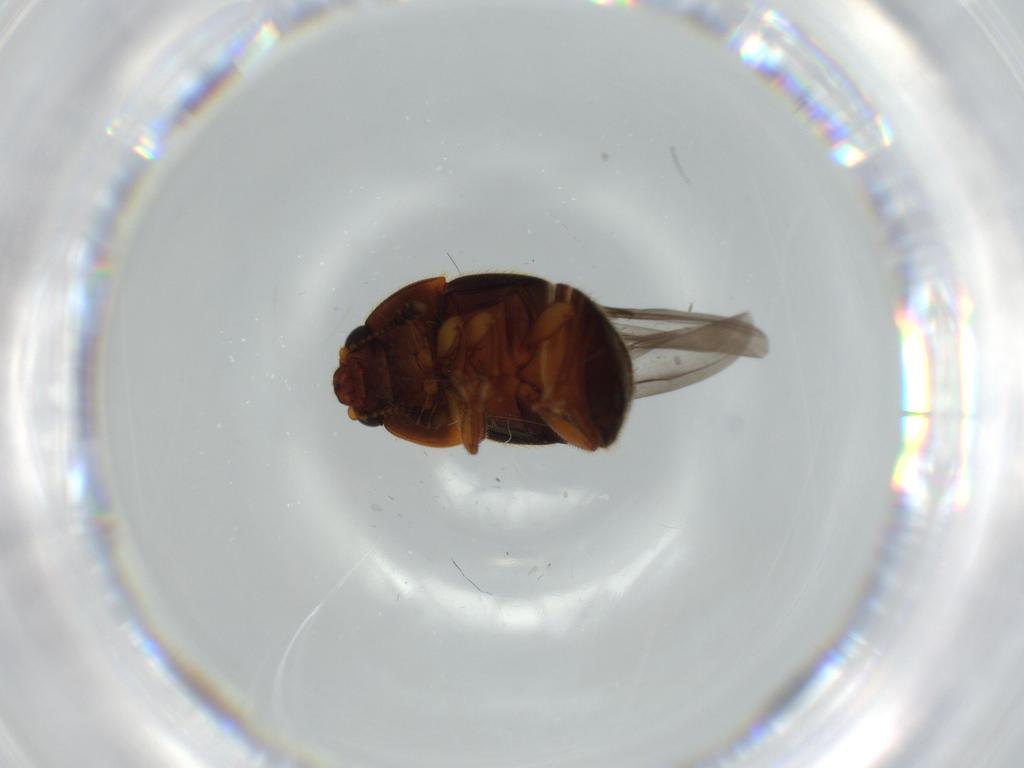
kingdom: Animalia
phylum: Arthropoda
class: Insecta
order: Coleoptera
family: Nitidulidae
